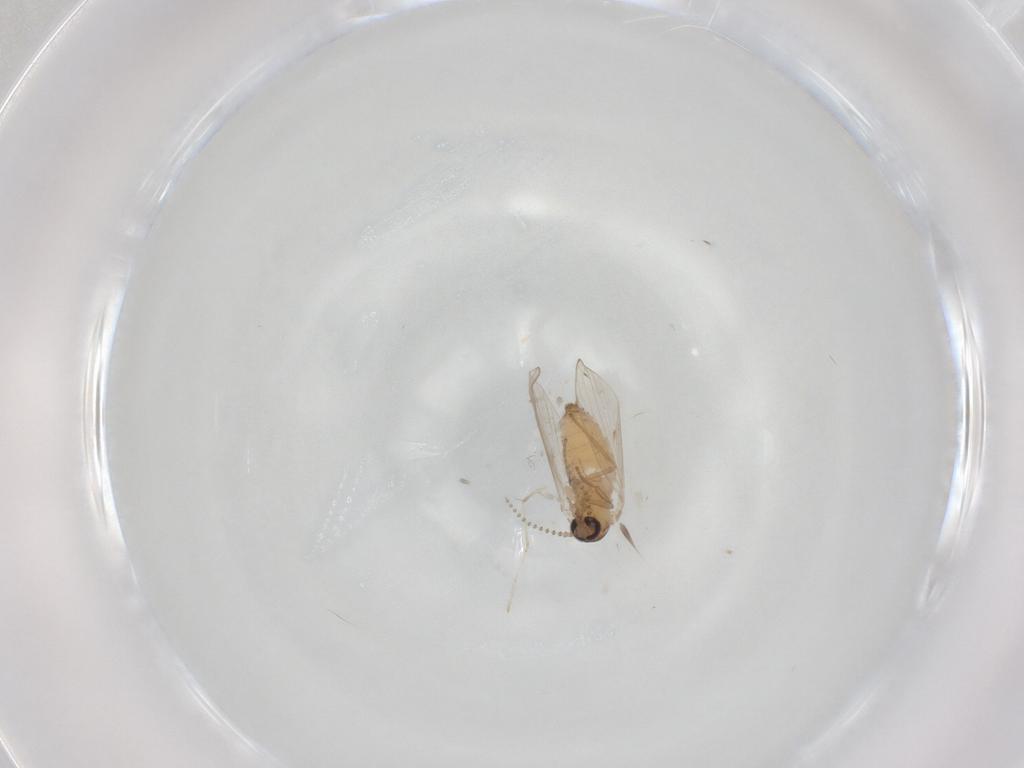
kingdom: Animalia
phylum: Arthropoda
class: Insecta
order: Diptera
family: Psychodidae
